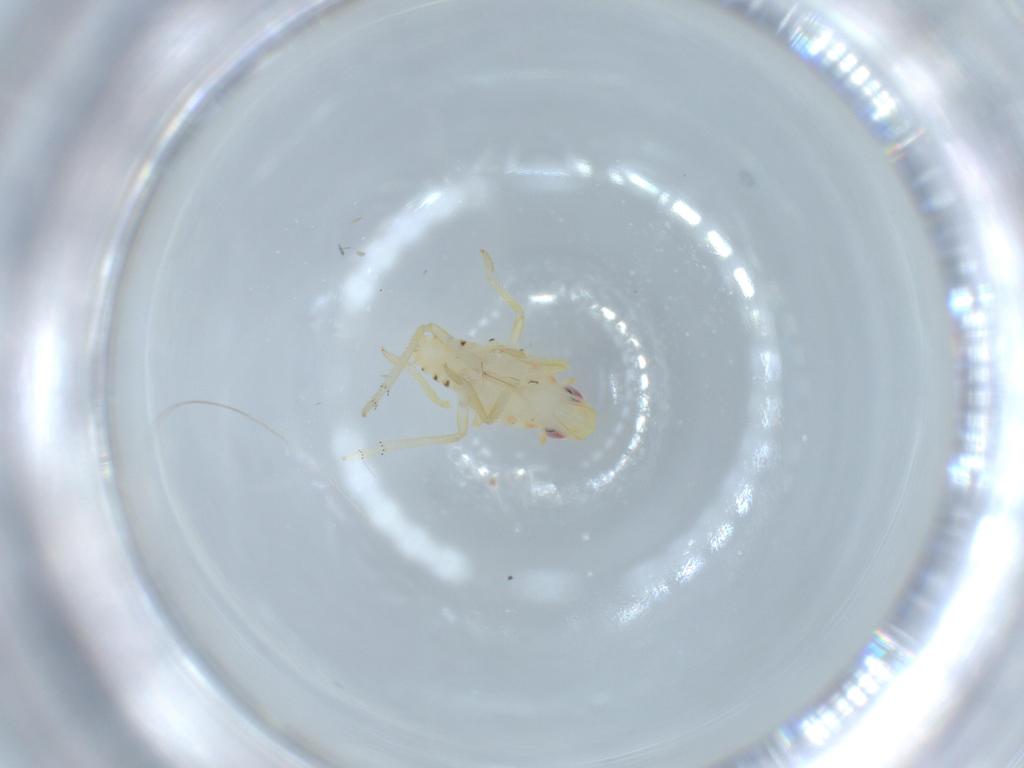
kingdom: Animalia
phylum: Arthropoda
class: Insecta
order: Hemiptera
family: Tropiduchidae
